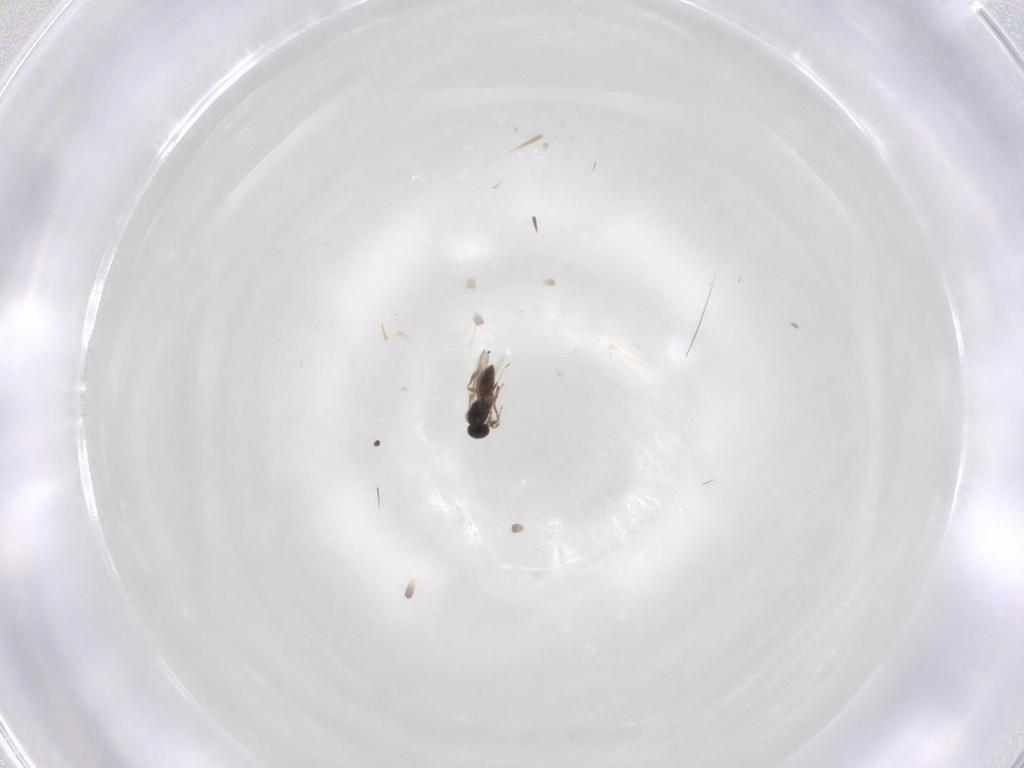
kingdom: Animalia
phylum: Arthropoda
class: Insecta
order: Hymenoptera
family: Scelionidae
